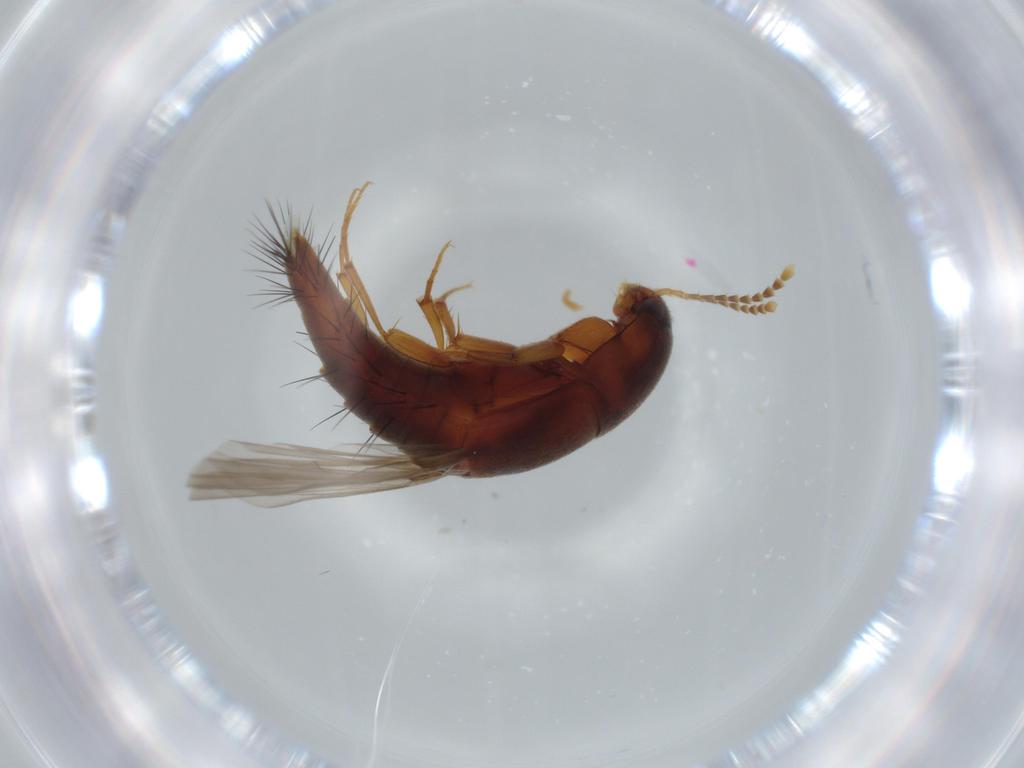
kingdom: Animalia
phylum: Arthropoda
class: Insecta
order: Coleoptera
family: Staphylinidae
